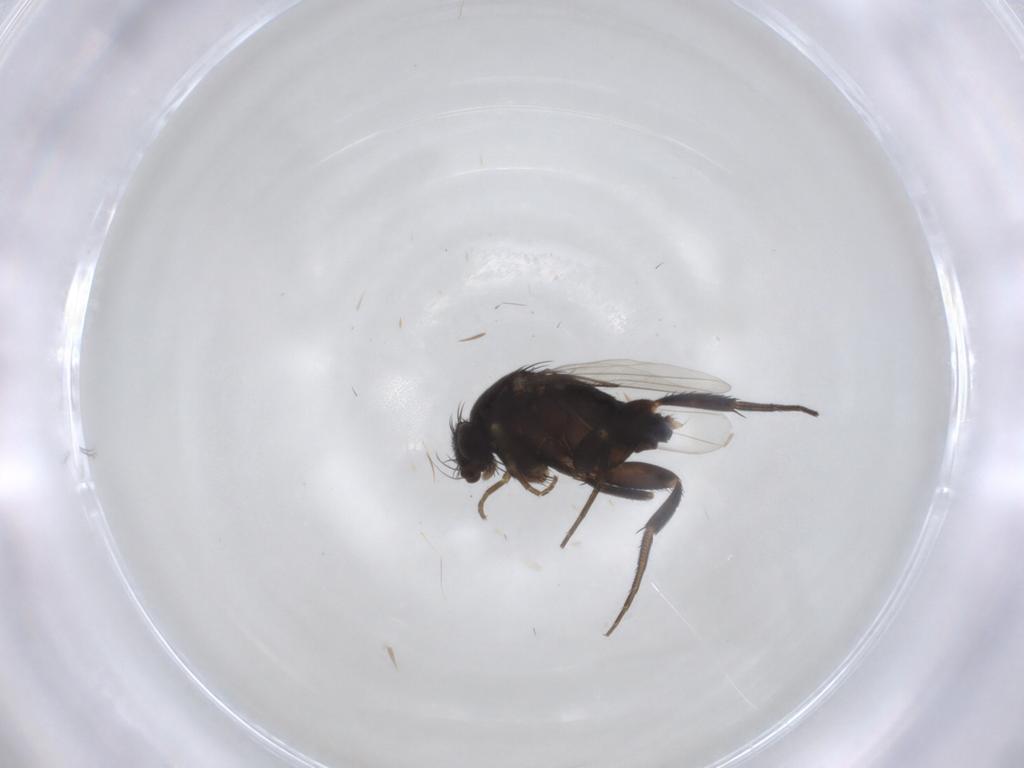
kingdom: Animalia
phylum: Arthropoda
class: Insecta
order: Diptera
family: Phoridae
